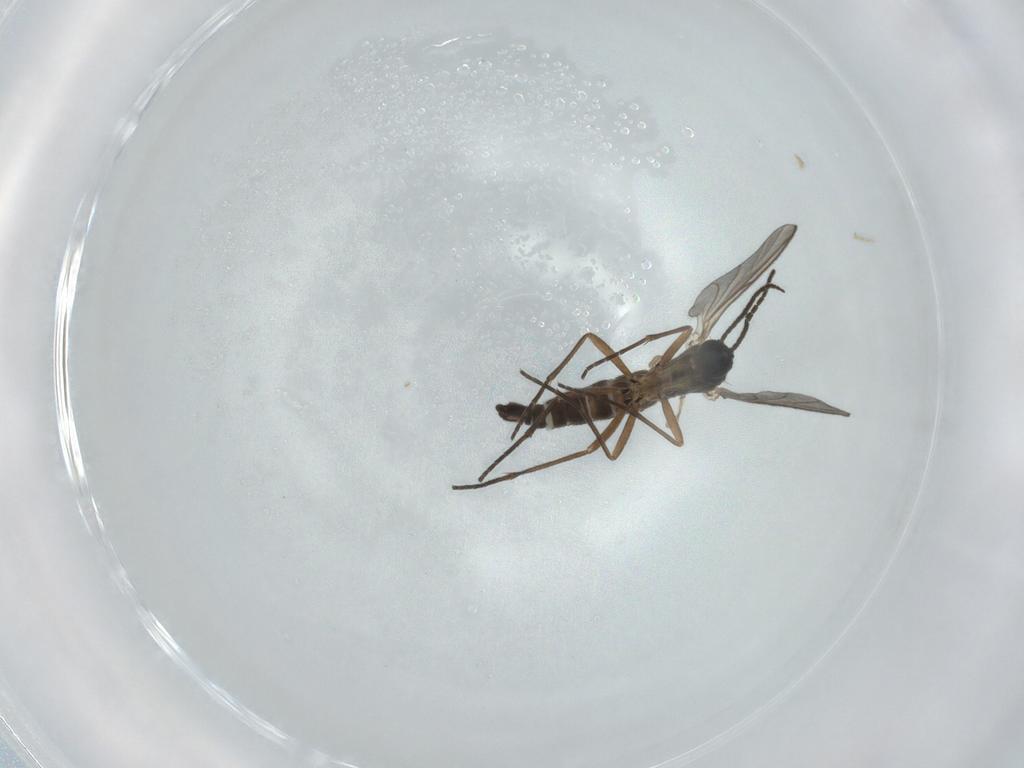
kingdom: Animalia
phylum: Arthropoda
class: Insecta
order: Diptera
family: Sciaridae
